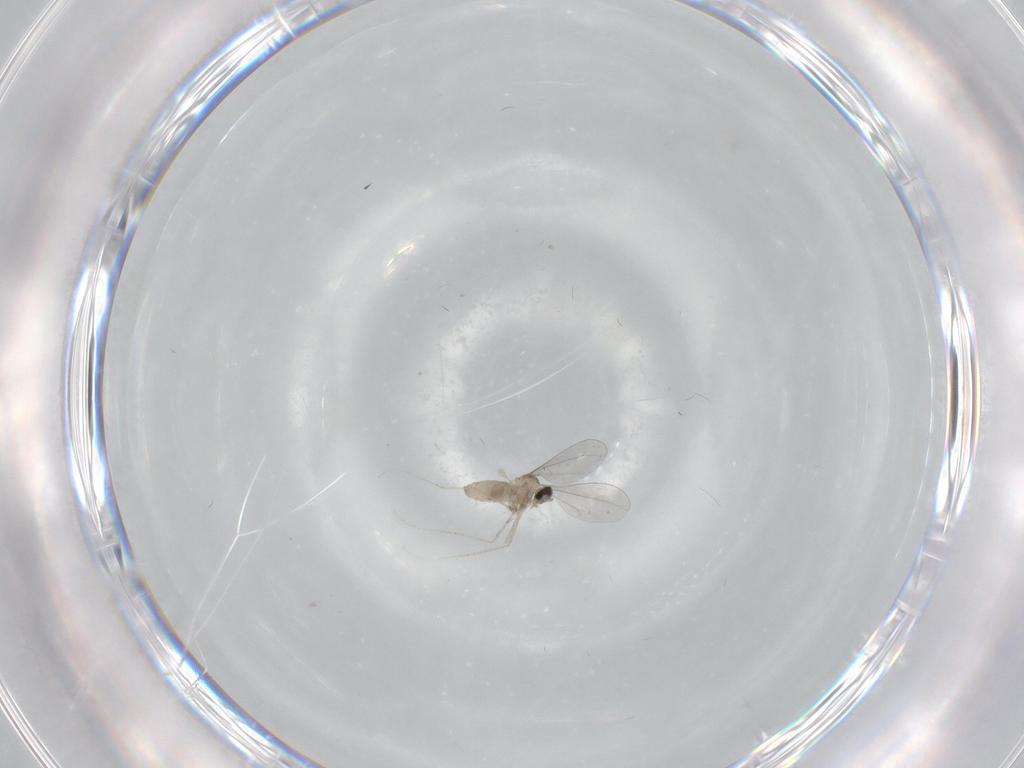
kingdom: Animalia
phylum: Arthropoda
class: Insecta
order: Diptera
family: Cecidomyiidae
